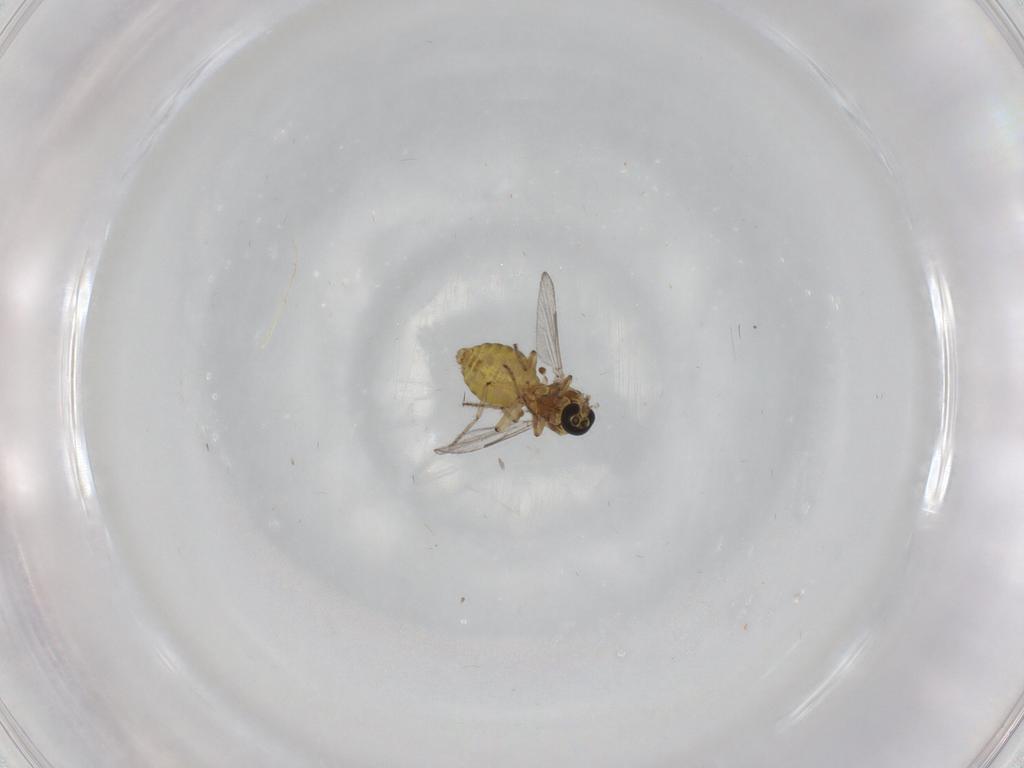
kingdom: Animalia
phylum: Arthropoda
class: Insecta
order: Diptera
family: Ceratopogonidae
